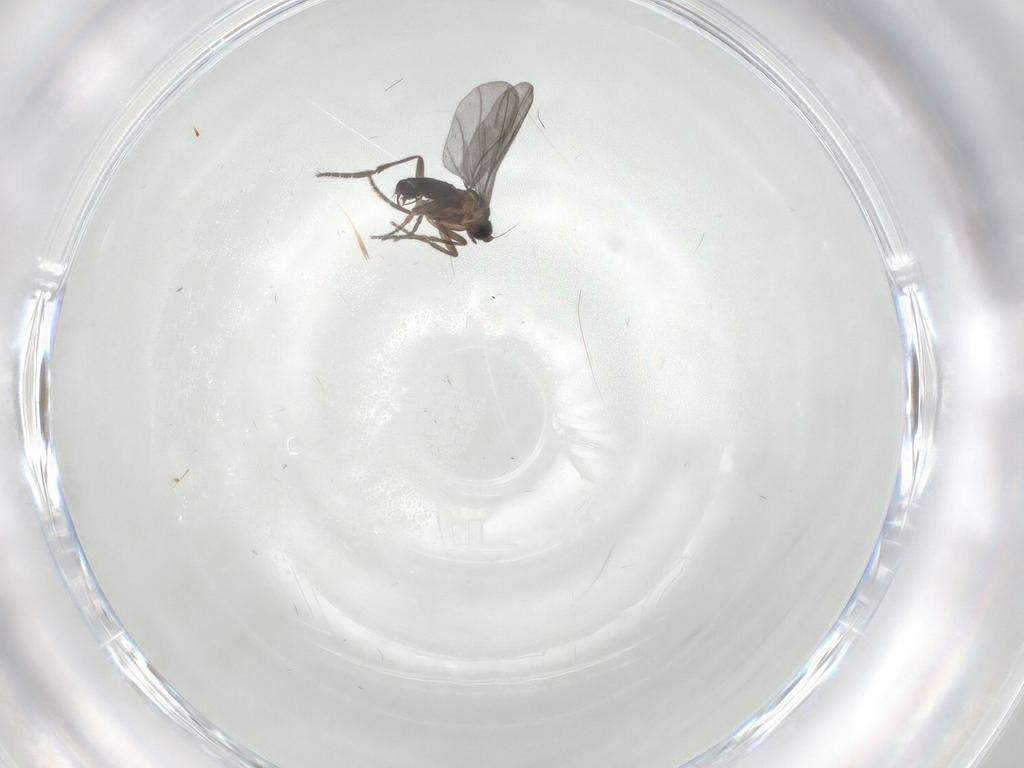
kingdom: Animalia
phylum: Arthropoda
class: Insecta
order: Diptera
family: Phoridae
